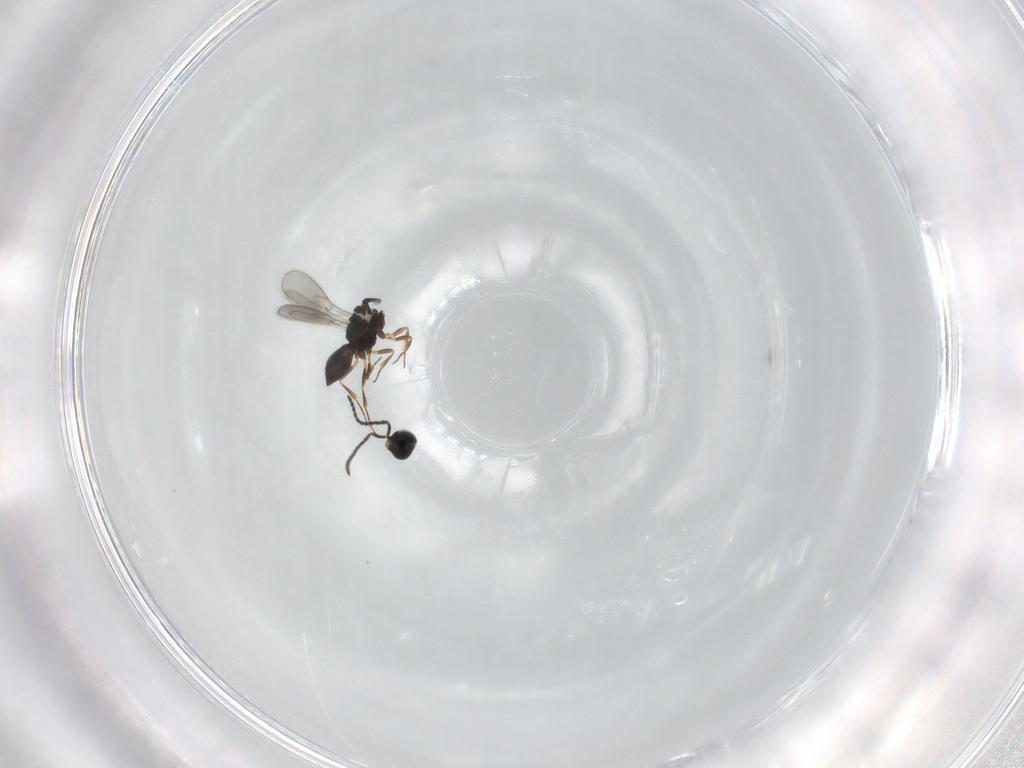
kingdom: Animalia
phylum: Arthropoda
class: Insecta
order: Hymenoptera
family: Scelionidae
